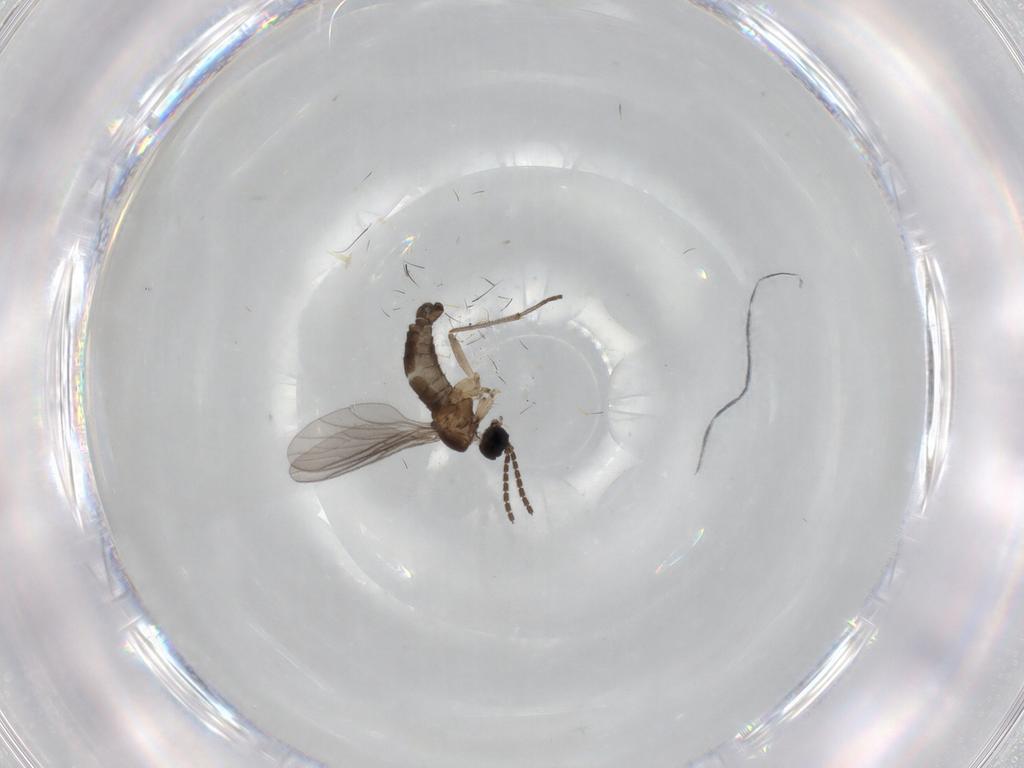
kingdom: Animalia
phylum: Arthropoda
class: Insecta
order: Diptera
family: Sciaridae
